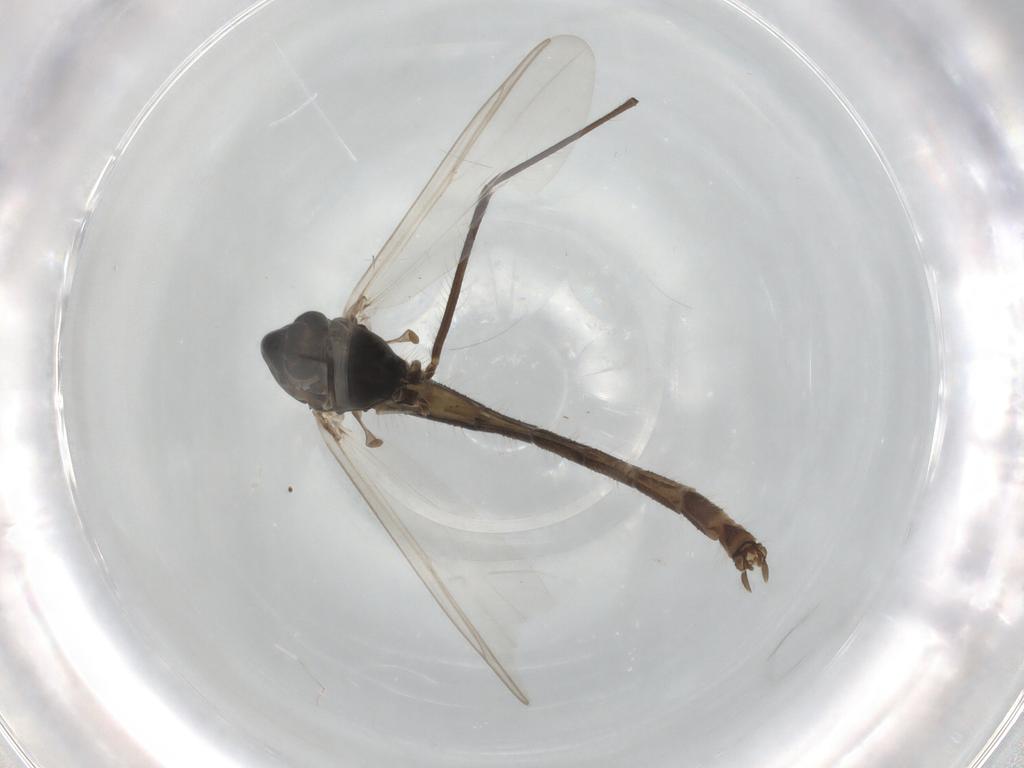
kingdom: Animalia
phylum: Arthropoda
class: Insecta
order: Diptera
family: Chironomidae
